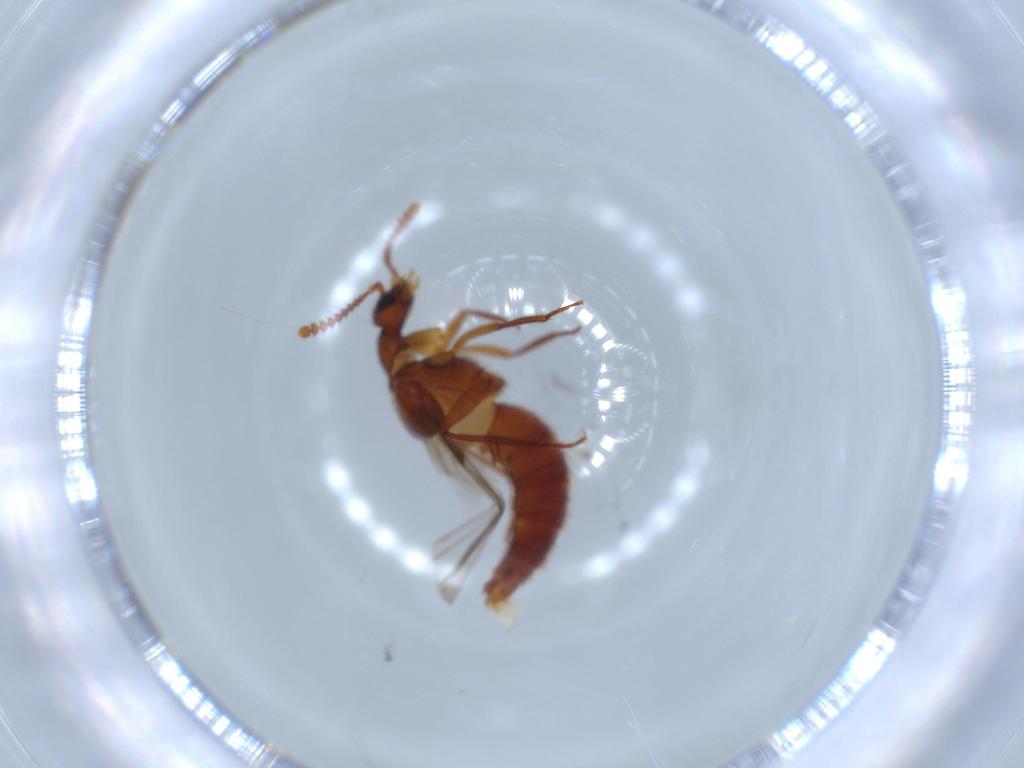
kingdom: Animalia
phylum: Arthropoda
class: Insecta
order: Coleoptera
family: Staphylinidae
